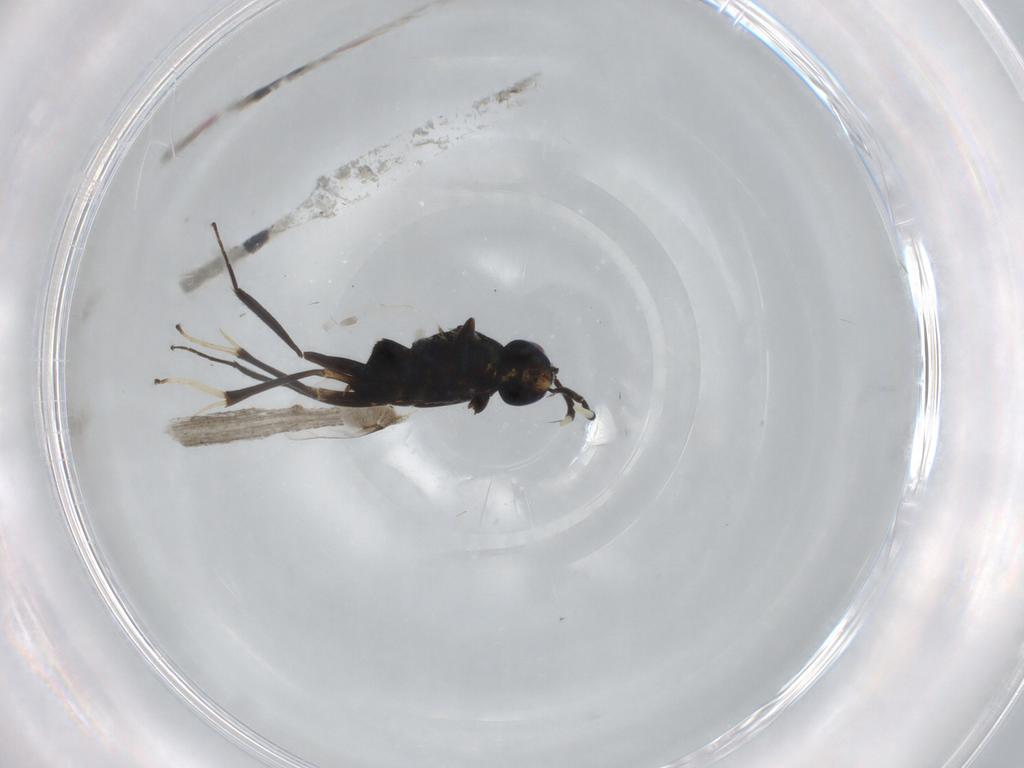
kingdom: Animalia
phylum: Arthropoda
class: Insecta
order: Hymenoptera
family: Encyrtidae
